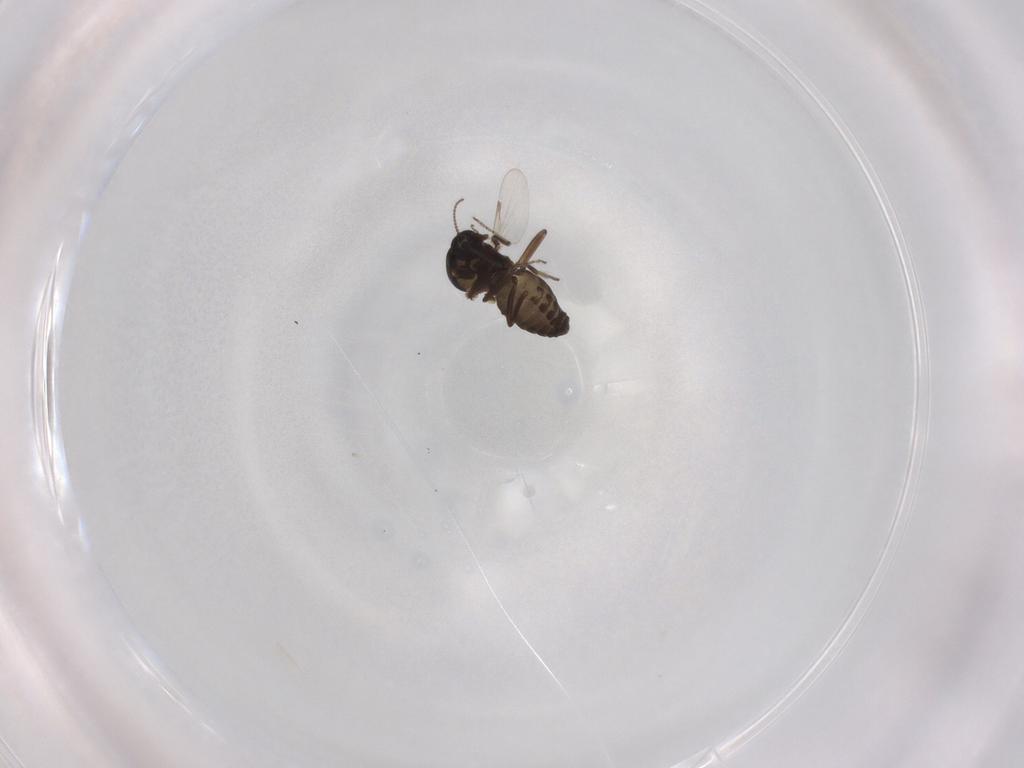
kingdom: Animalia
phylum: Arthropoda
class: Insecta
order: Diptera
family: Ceratopogonidae
